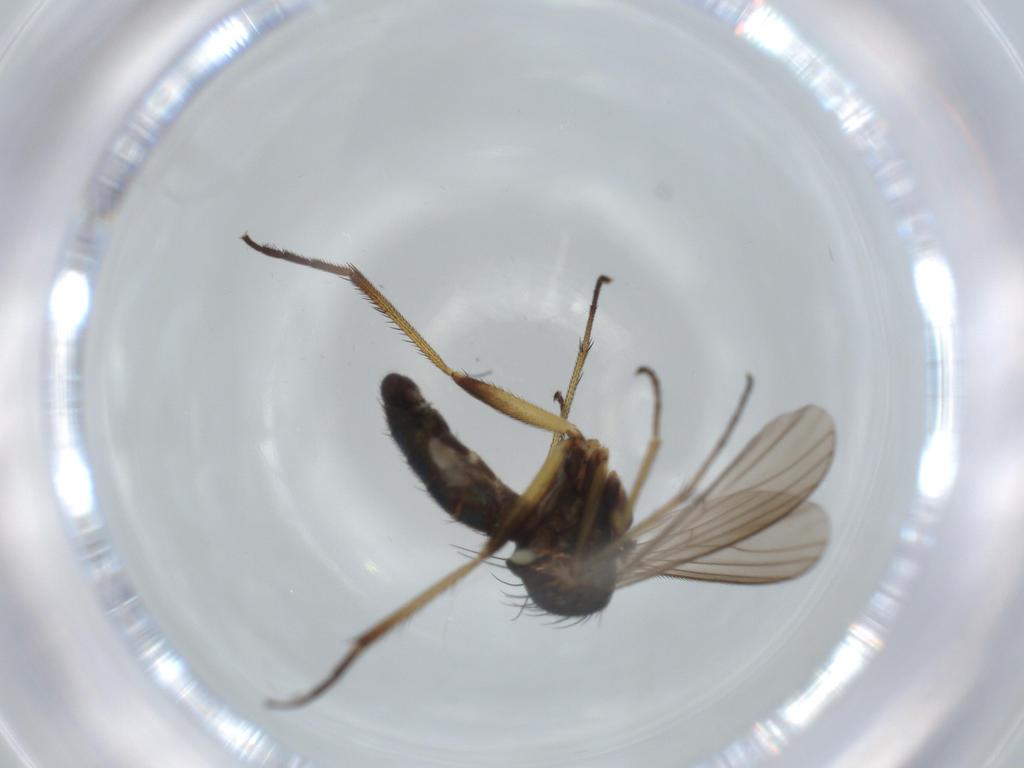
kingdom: Animalia
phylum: Arthropoda
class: Insecta
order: Diptera
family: Dolichopodidae
